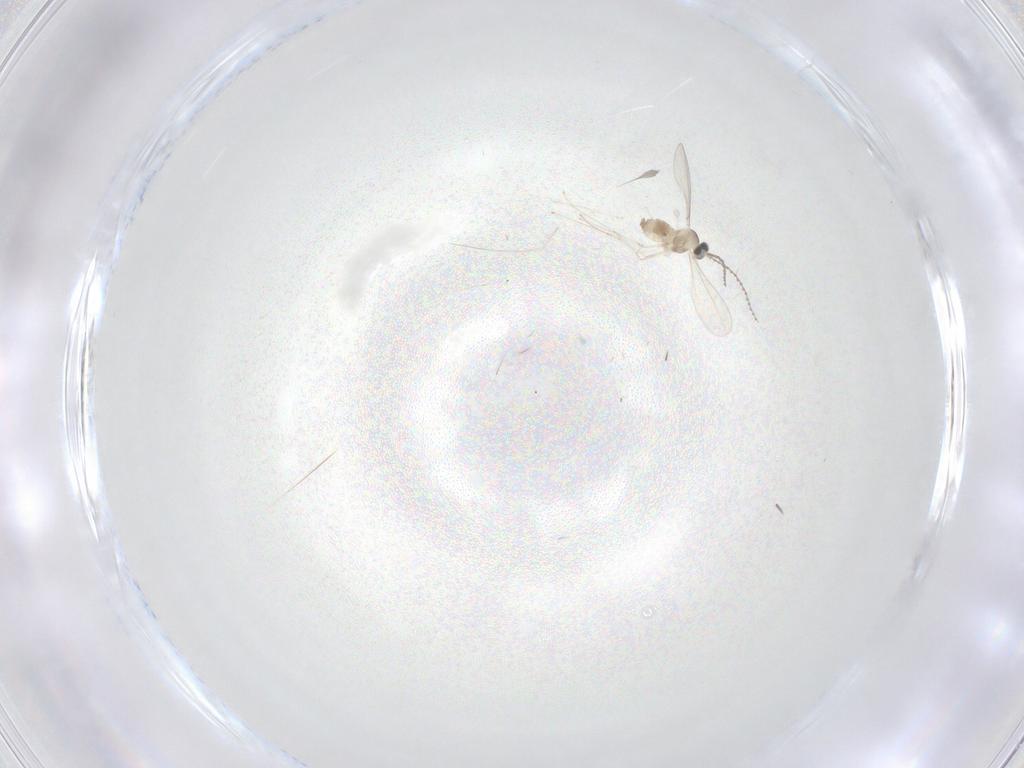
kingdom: Animalia
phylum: Arthropoda
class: Insecta
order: Diptera
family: Cecidomyiidae
